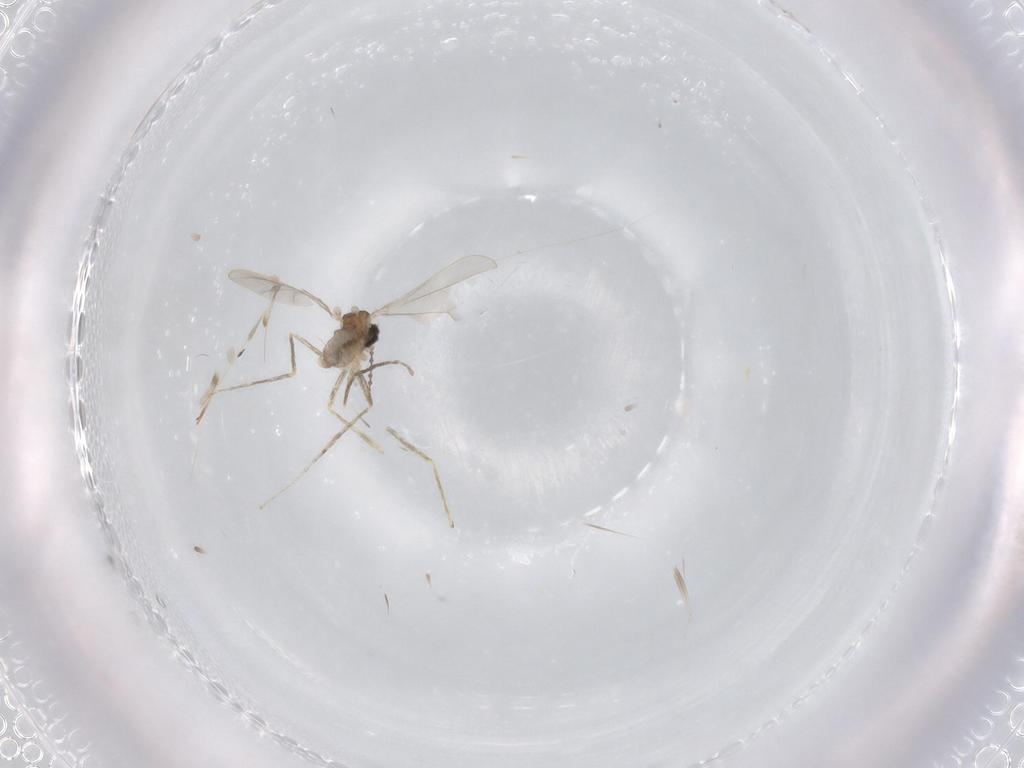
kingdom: Animalia
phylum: Arthropoda
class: Insecta
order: Diptera
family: Cecidomyiidae
